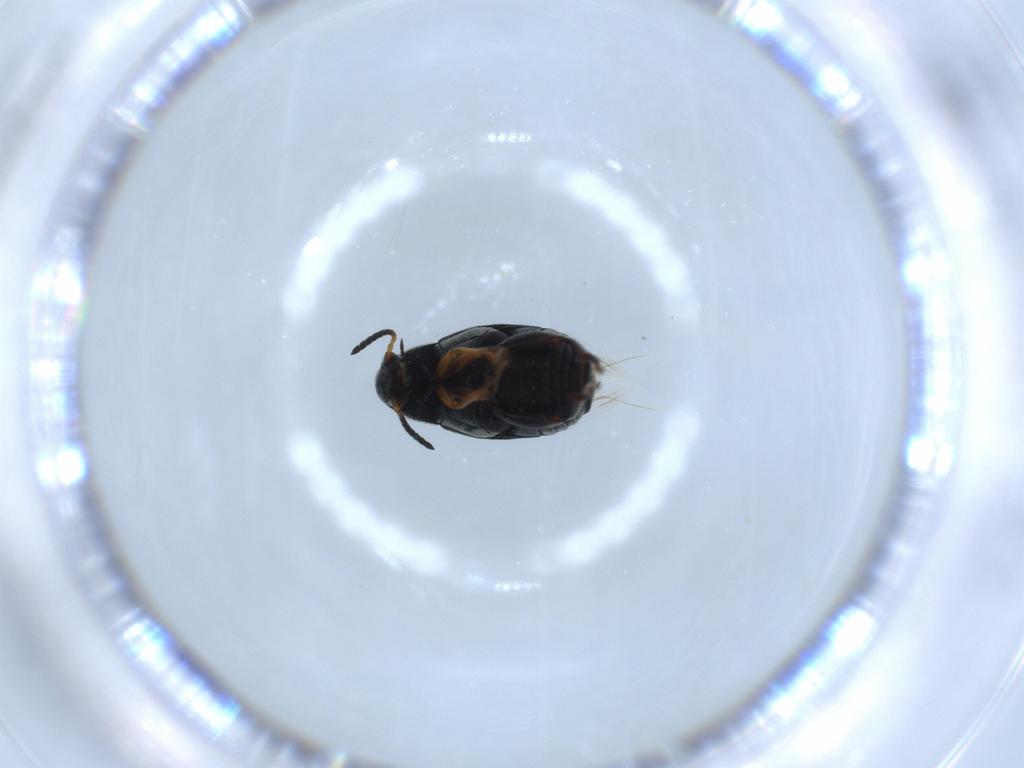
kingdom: Animalia
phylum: Arthropoda
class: Insecta
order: Coleoptera
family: Chrysomelidae
